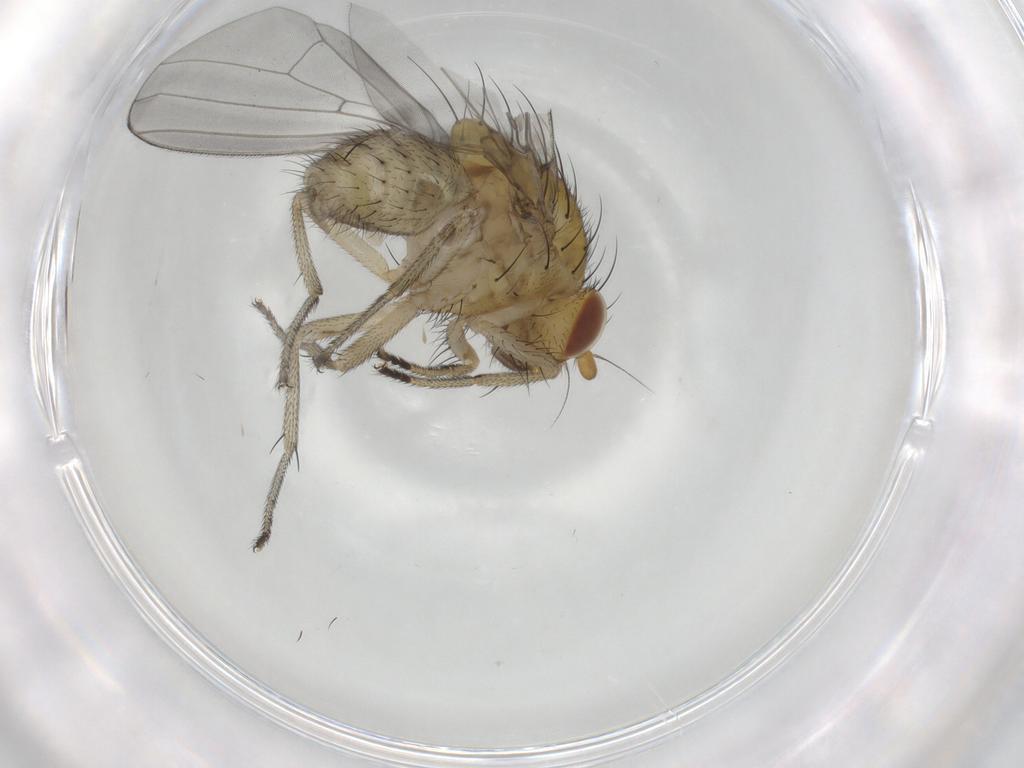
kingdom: Animalia
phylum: Arthropoda
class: Insecta
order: Diptera
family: Sciaridae
